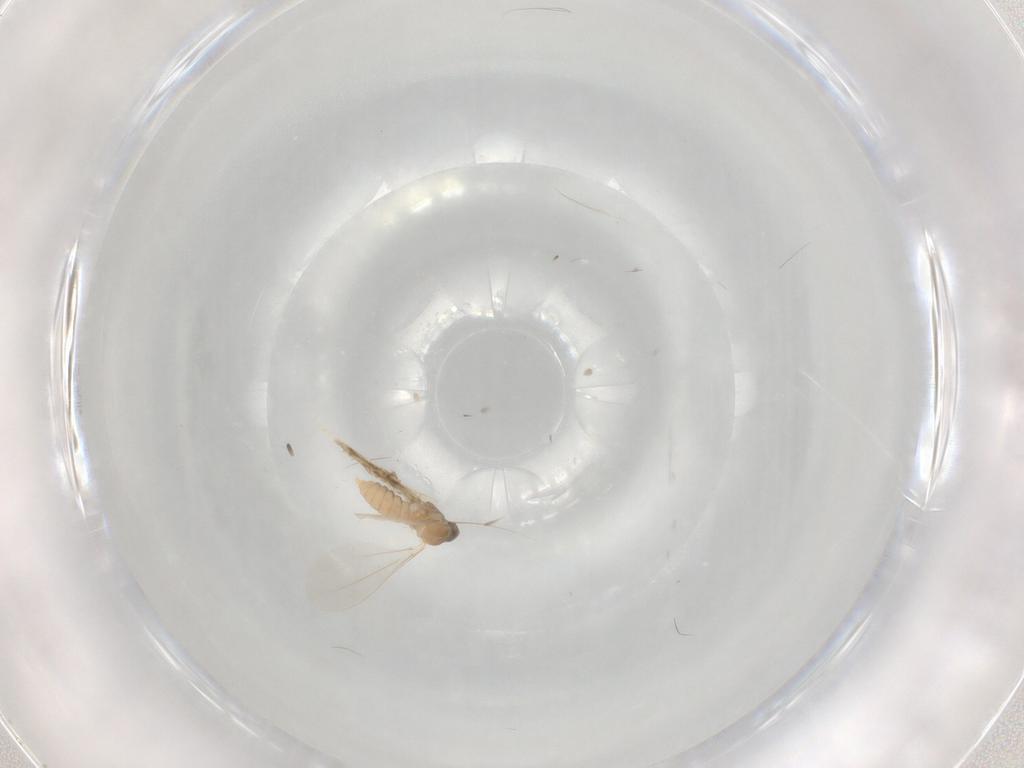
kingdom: Animalia
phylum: Arthropoda
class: Insecta
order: Diptera
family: Cecidomyiidae
